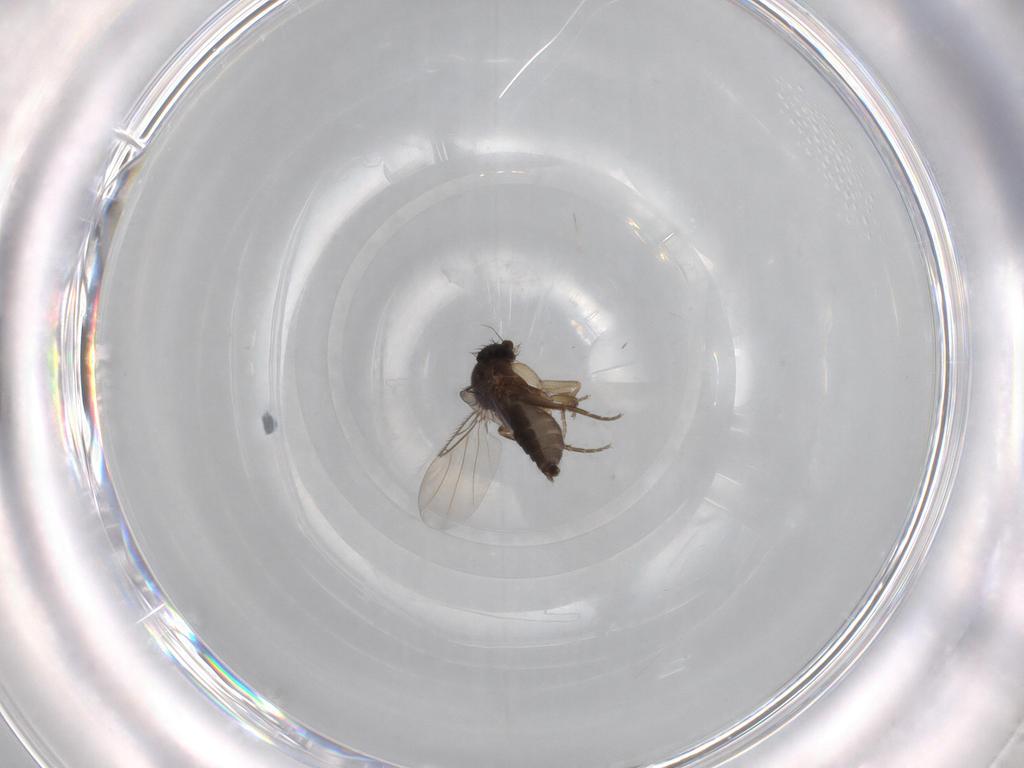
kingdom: Animalia
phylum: Arthropoda
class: Insecta
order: Diptera
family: Phoridae
